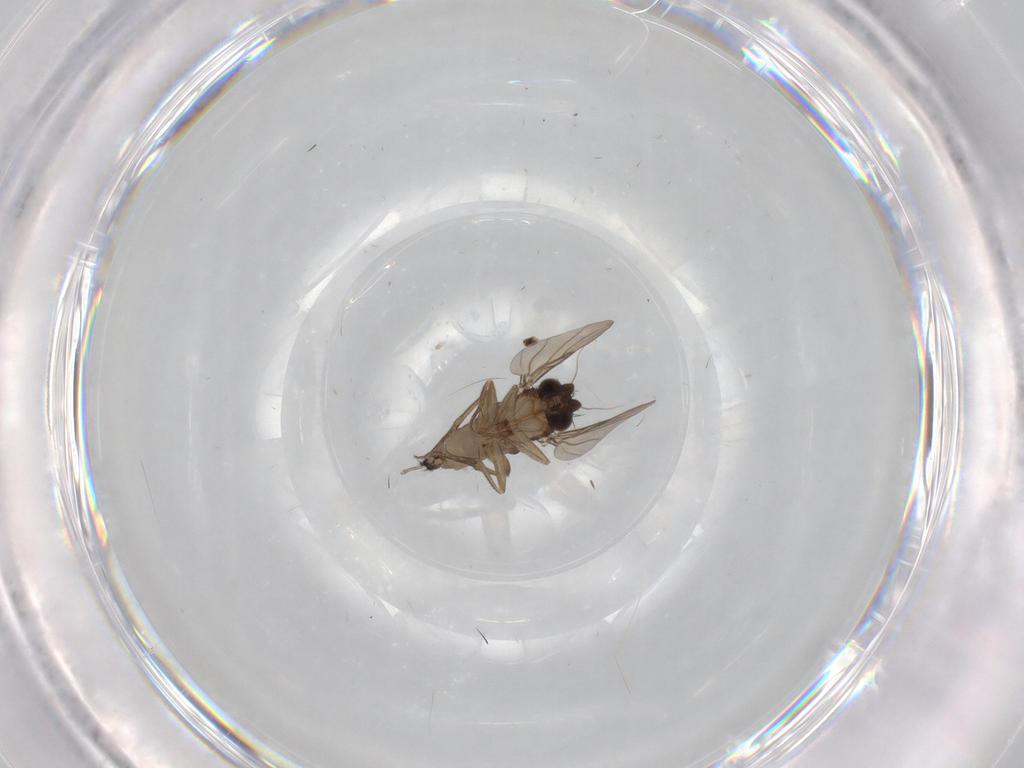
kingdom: Animalia
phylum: Arthropoda
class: Insecta
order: Diptera
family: Phoridae
